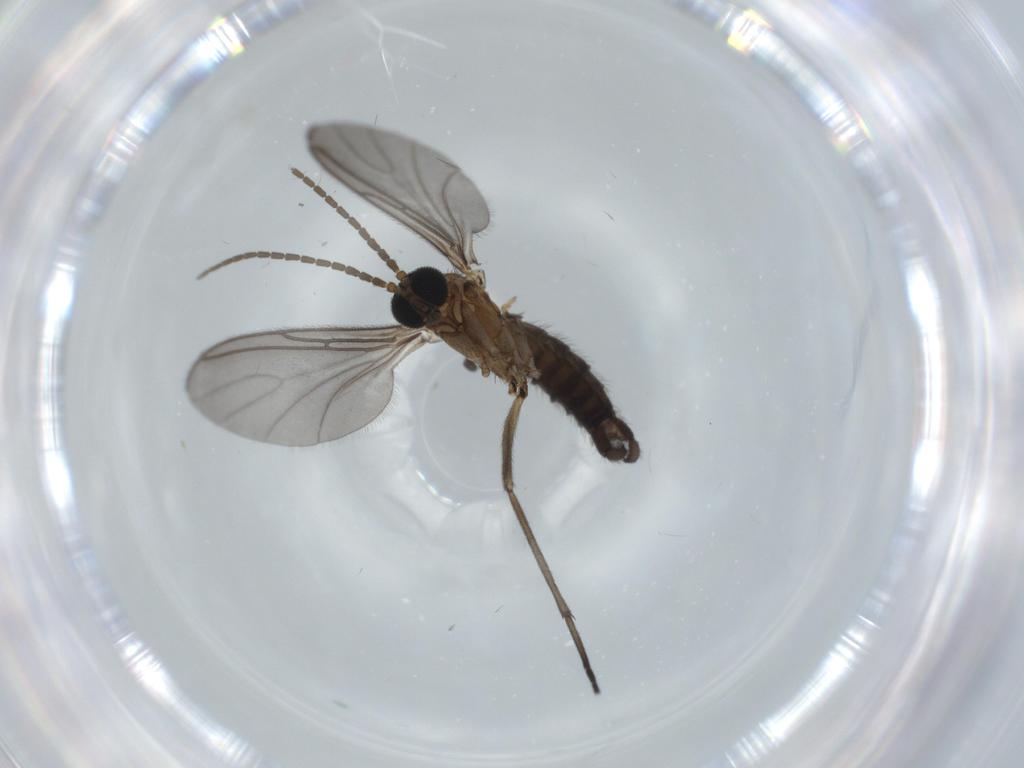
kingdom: Animalia
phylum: Arthropoda
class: Insecta
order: Diptera
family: Sciaridae
